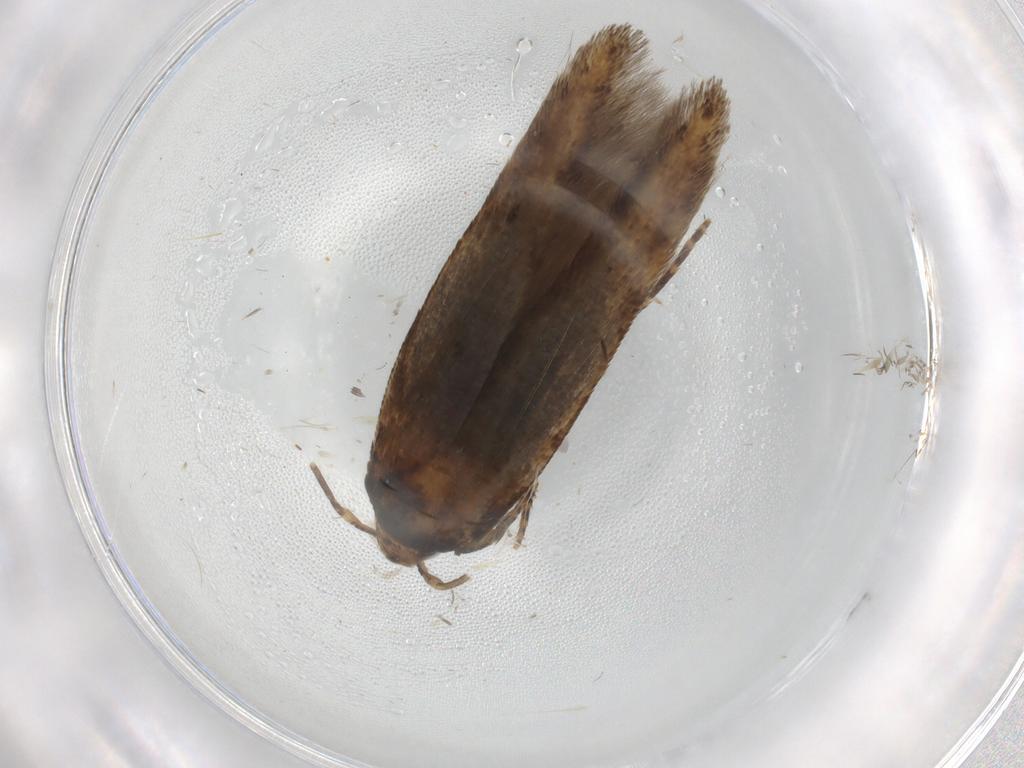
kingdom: Animalia
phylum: Arthropoda
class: Insecta
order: Lepidoptera
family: Cosmopterigidae
